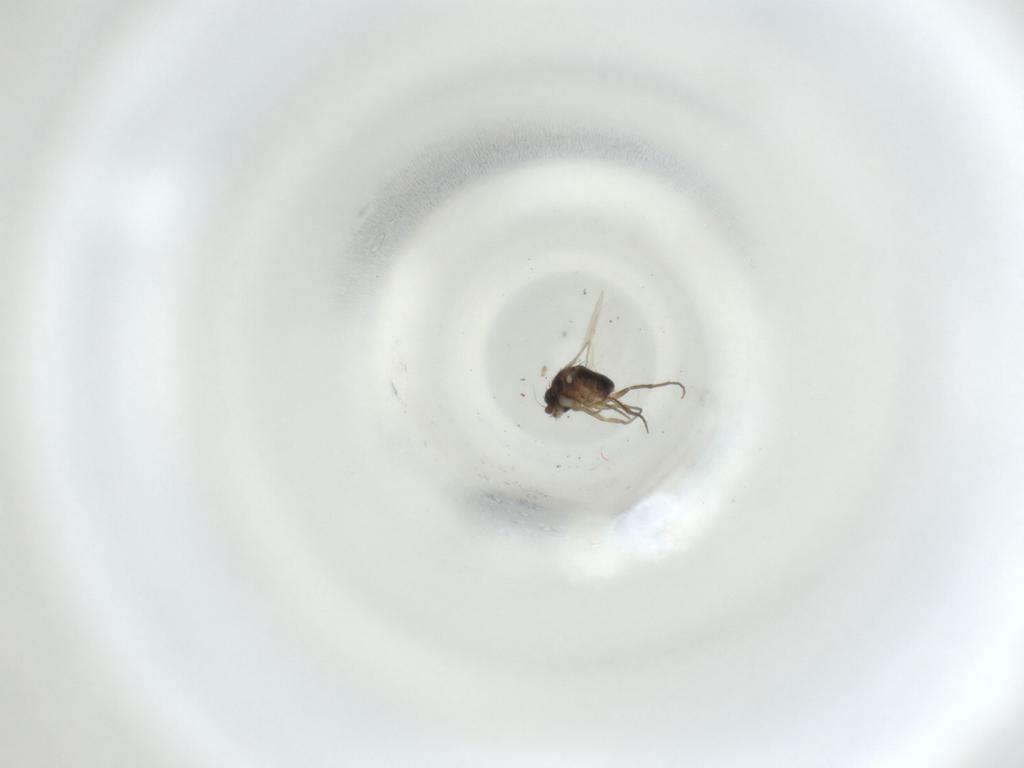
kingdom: Animalia
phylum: Arthropoda
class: Insecta
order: Diptera
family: Phoridae
